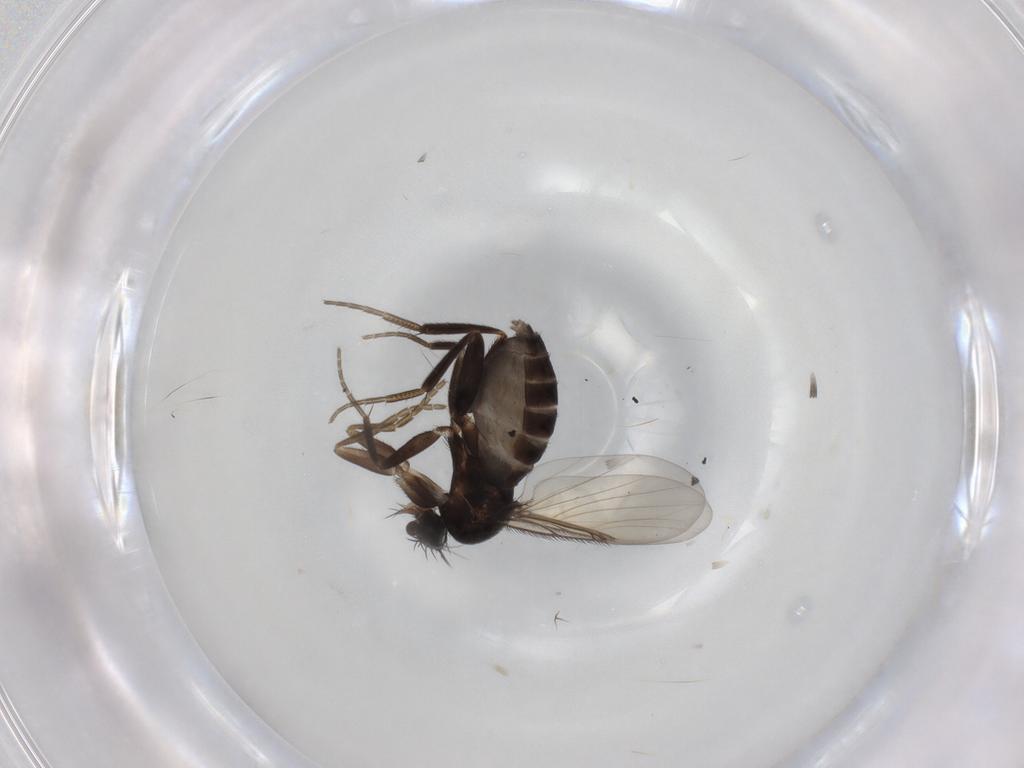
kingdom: Animalia
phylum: Arthropoda
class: Insecta
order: Diptera
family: Phoridae
